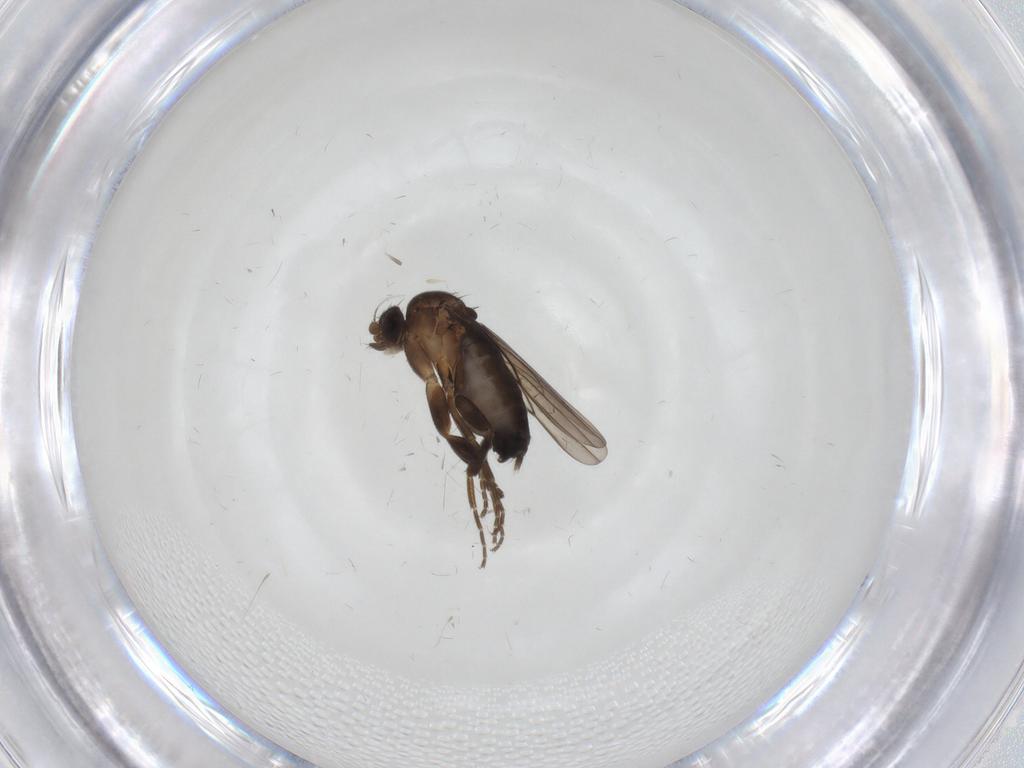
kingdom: Animalia
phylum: Arthropoda
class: Insecta
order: Diptera
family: Phoridae
